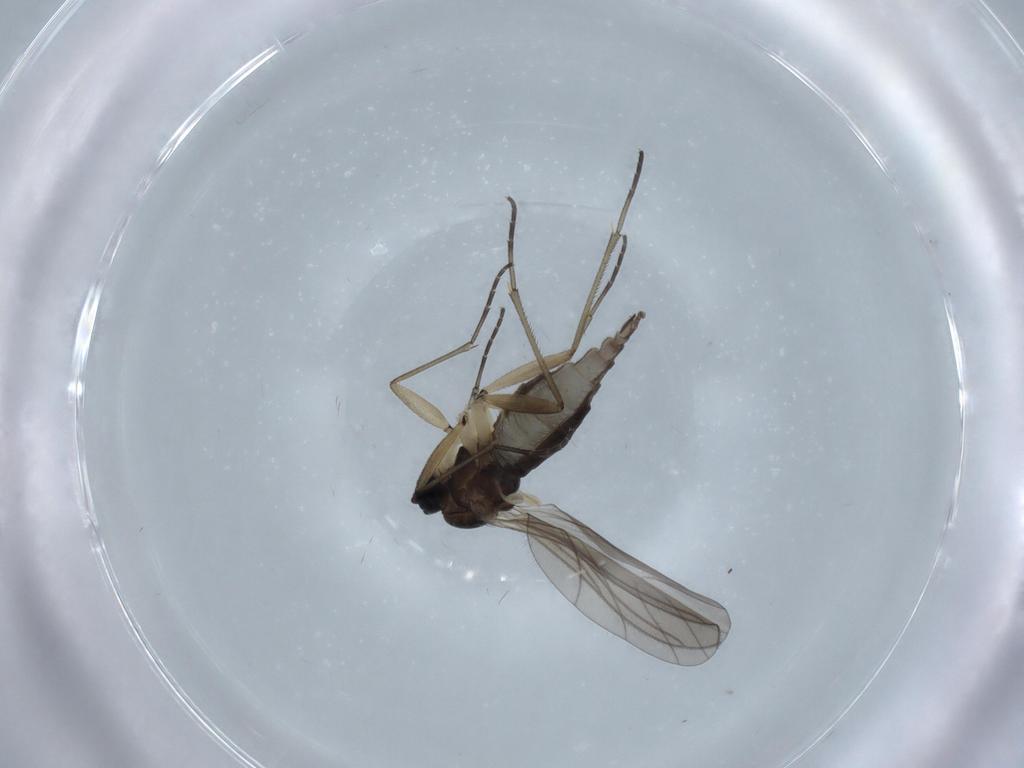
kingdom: Animalia
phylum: Arthropoda
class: Insecta
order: Diptera
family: Sciaridae
